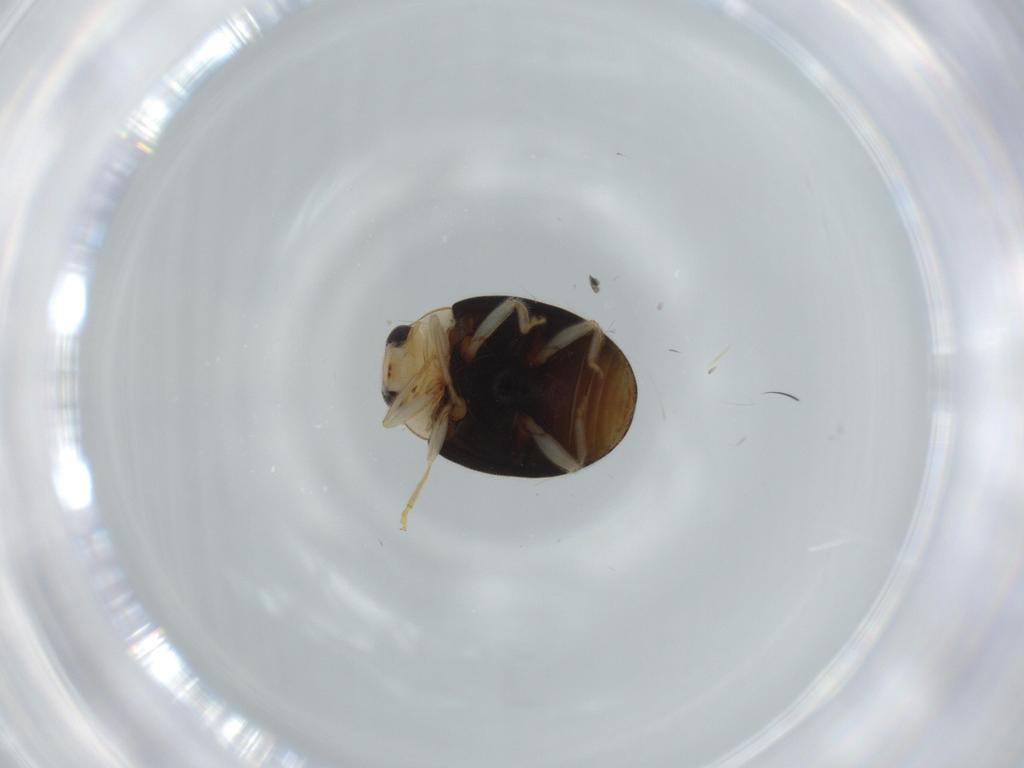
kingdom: Animalia
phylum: Arthropoda
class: Insecta
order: Coleoptera
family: Coccinellidae
